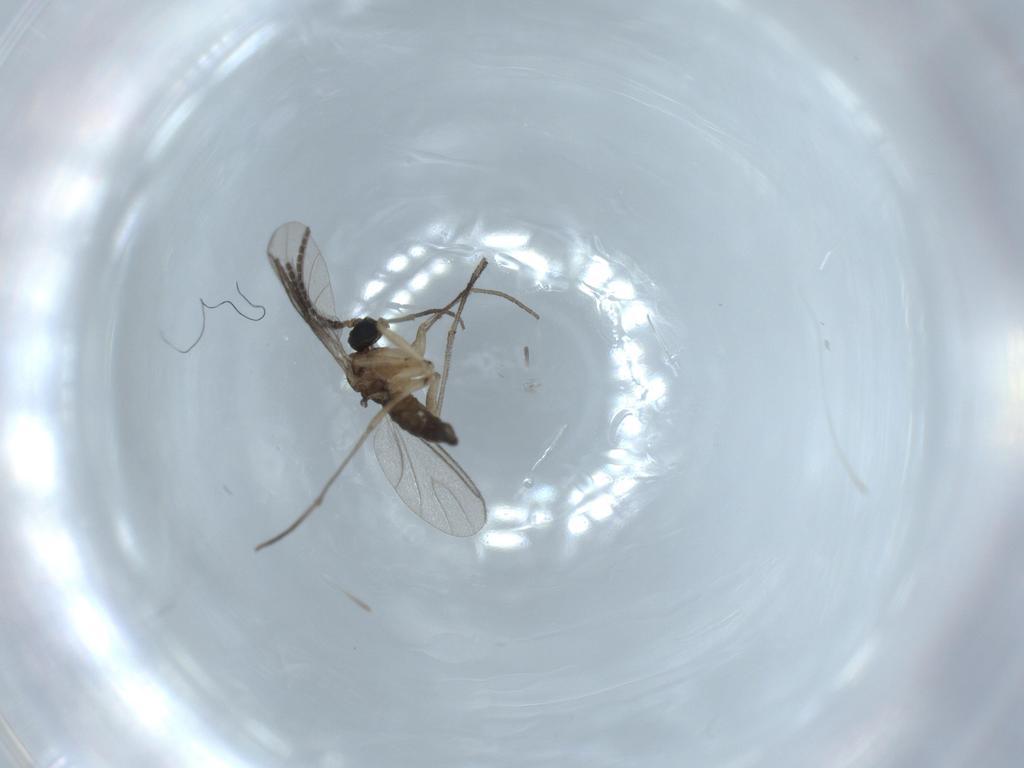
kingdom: Animalia
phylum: Arthropoda
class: Insecta
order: Diptera
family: Sciaridae
